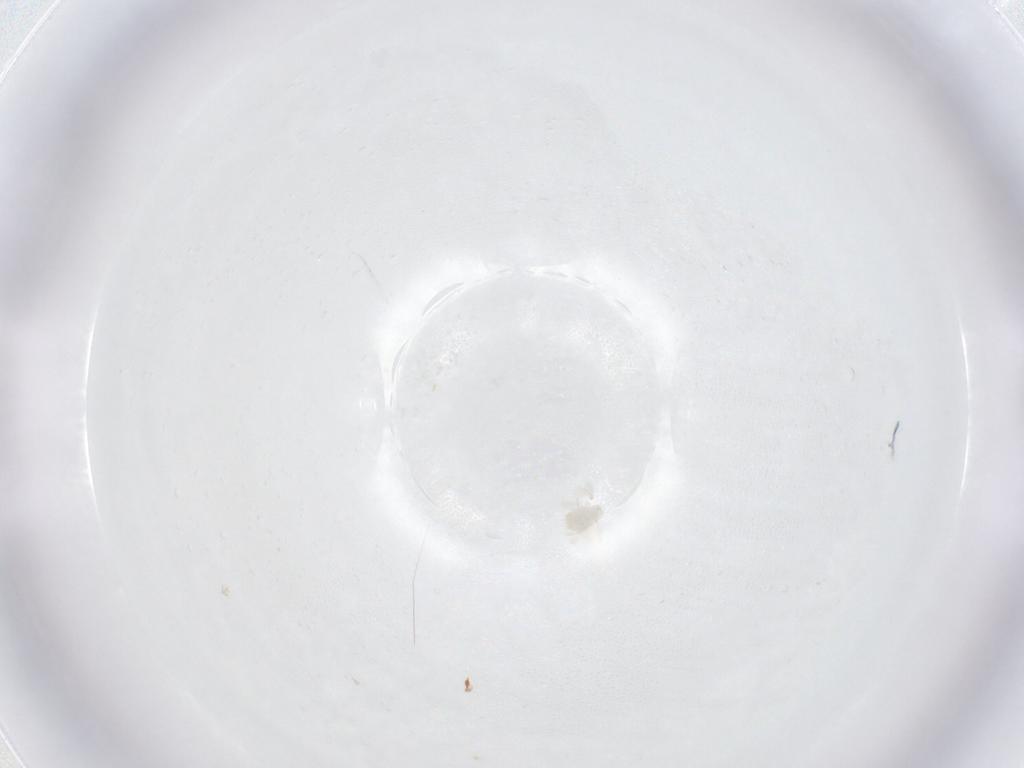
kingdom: Animalia
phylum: Arthropoda
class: Arachnida
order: Trombidiformes
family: Anystidae
